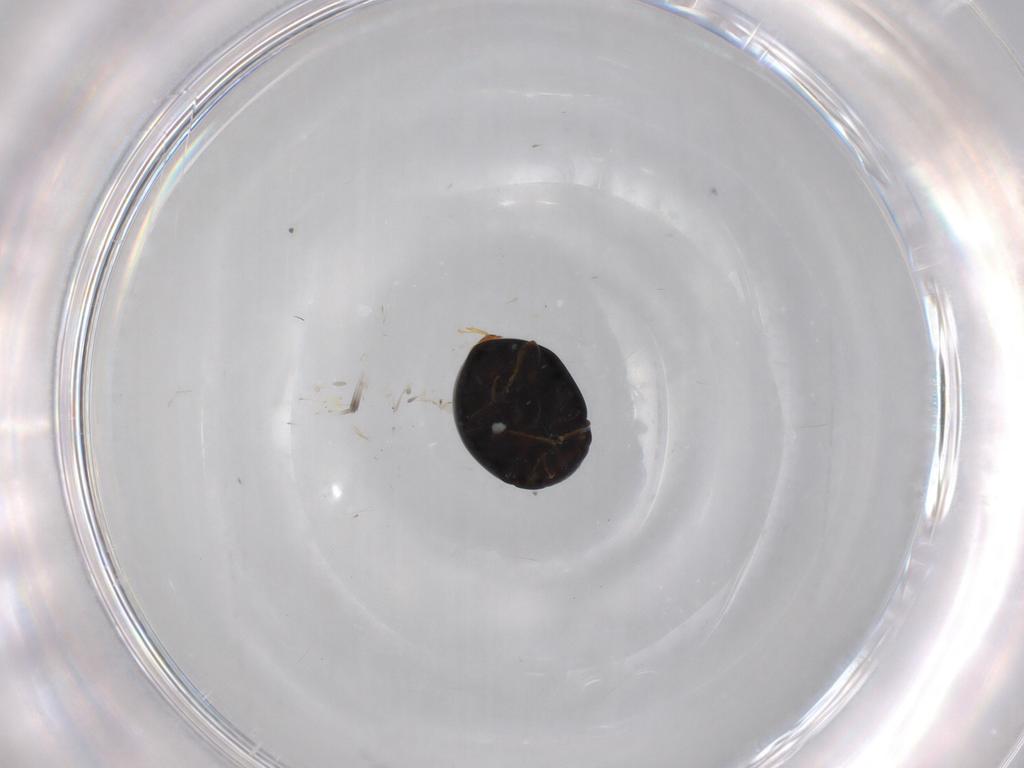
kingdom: Animalia
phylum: Arthropoda
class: Insecta
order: Coleoptera
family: Coccinellidae
